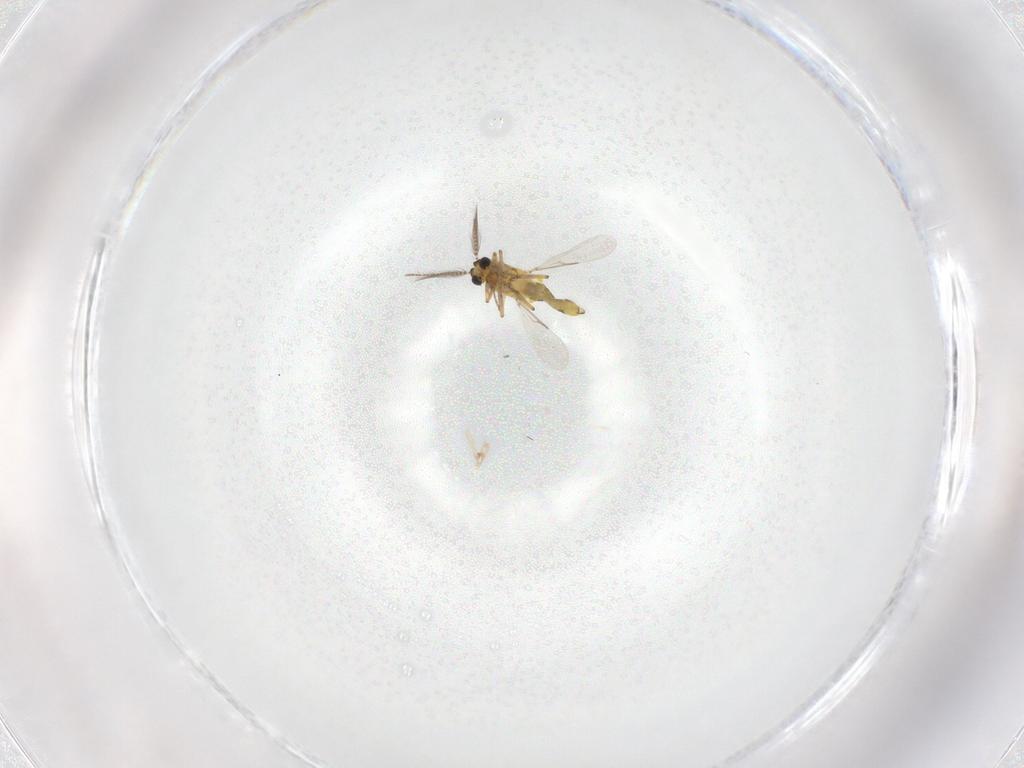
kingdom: Animalia
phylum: Arthropoda
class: Insecta
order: Diptera
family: Ceratopogonidae
